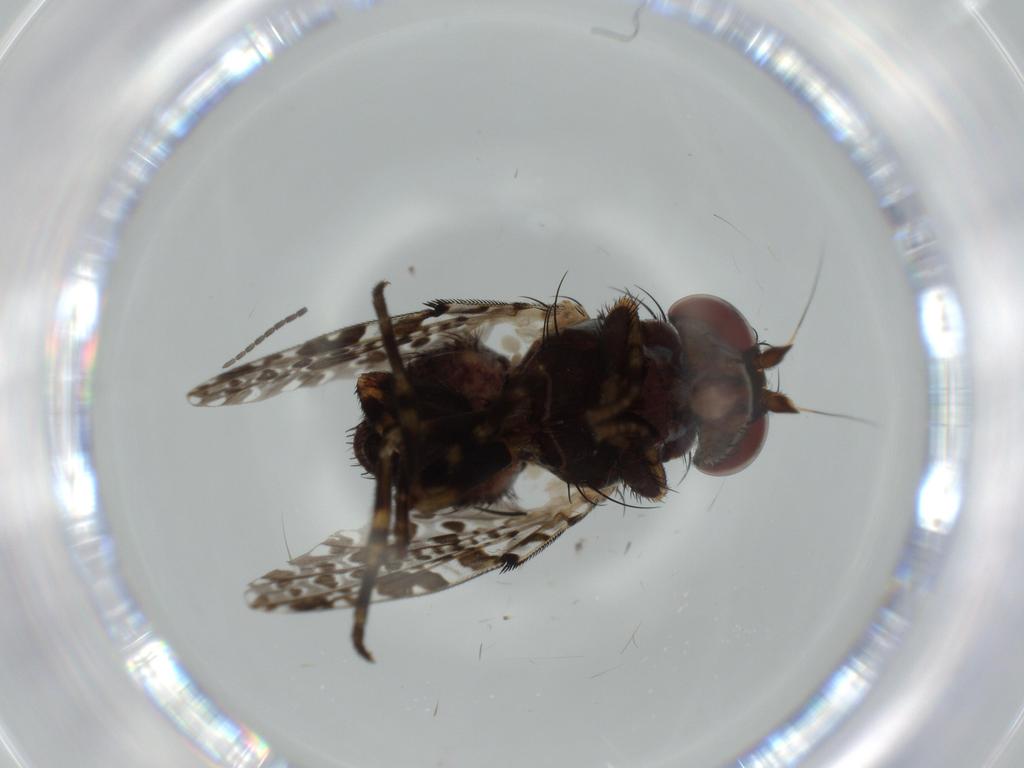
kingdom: Animalia
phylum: Arthropoda
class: Insecta
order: Diptera
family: Odiniidae
